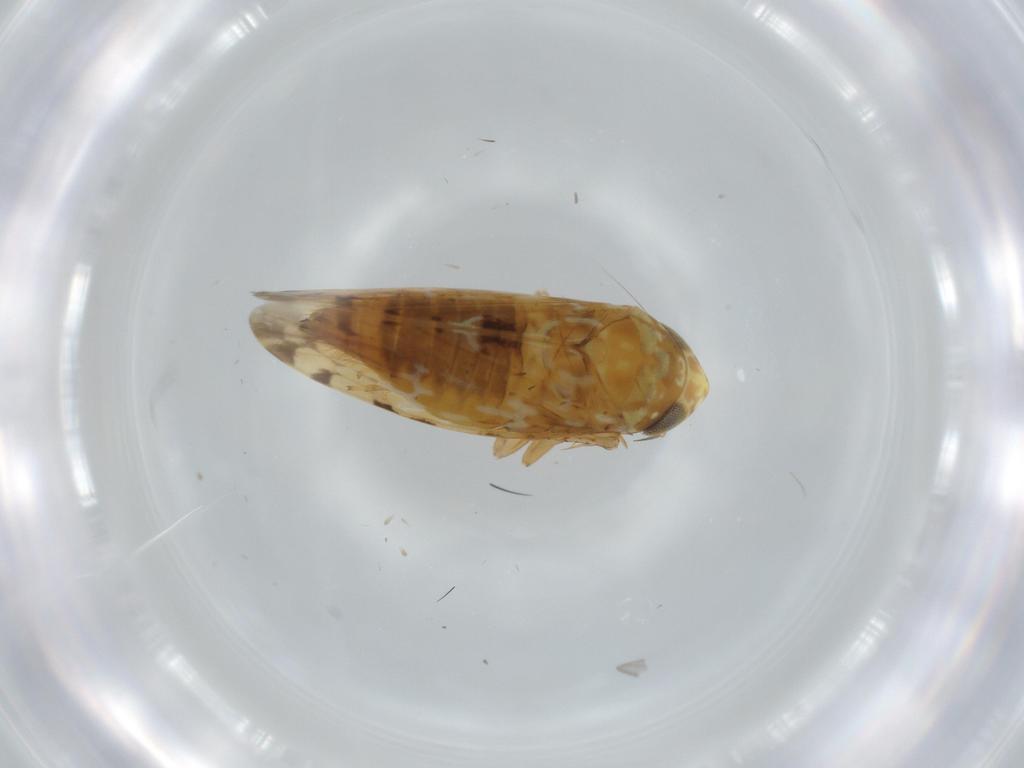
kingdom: Animalia
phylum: Arthropoda
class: Insecta
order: Hemiptera
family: Cicadellidae
